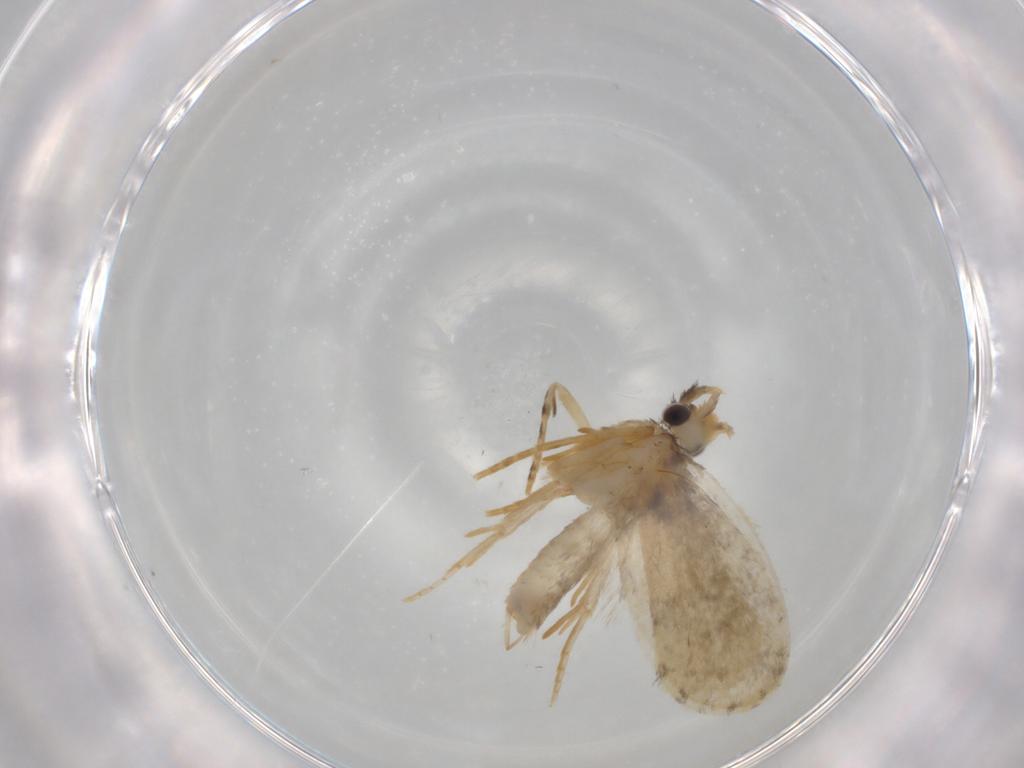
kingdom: Animalia
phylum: Arthropoda
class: Insecta
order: Lepidoptera
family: Psychidae
